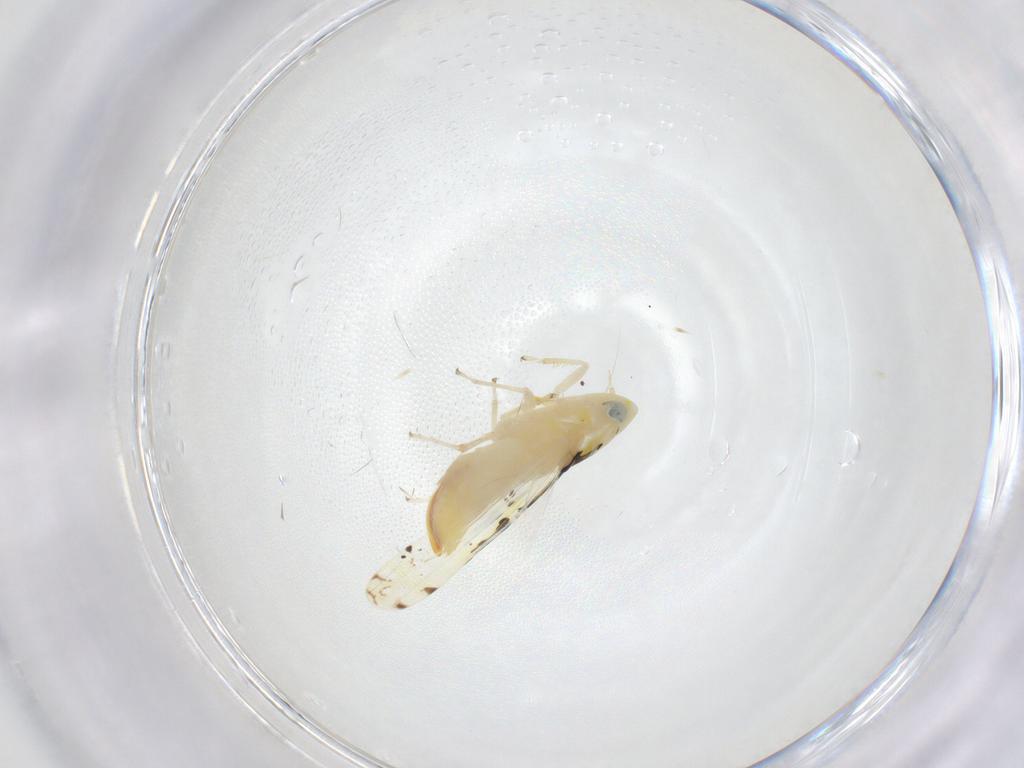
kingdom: Animalia
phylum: Arthropoda
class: Insecta
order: Hemiptera
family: Cicadellidae
